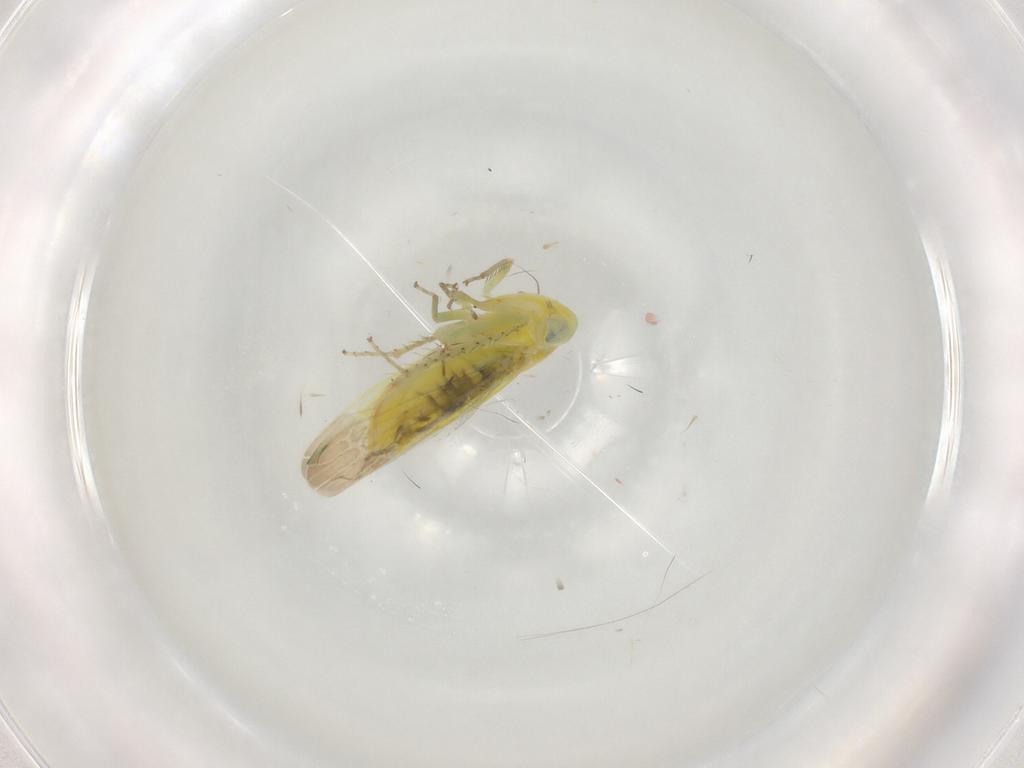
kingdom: Animalia
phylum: Arthropoda
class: Insecta
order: Hemiptera
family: Cicadellidae
